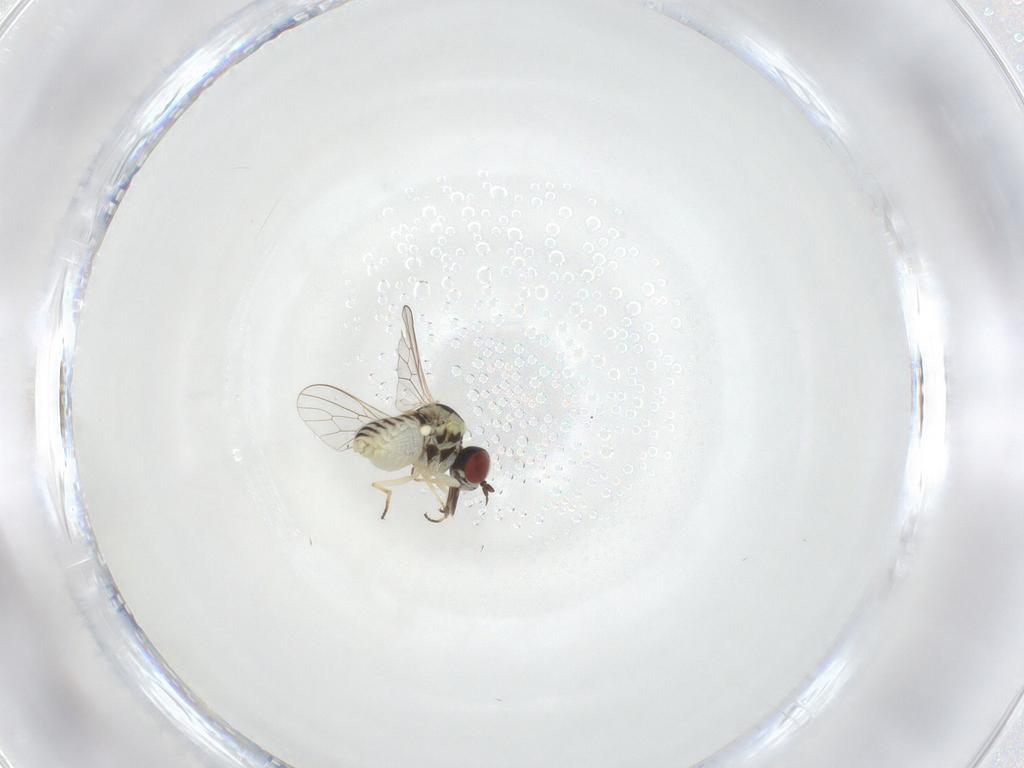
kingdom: Animalia
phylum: Arthropoda
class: Insecta
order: Diptera
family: Mythicomyiidae
